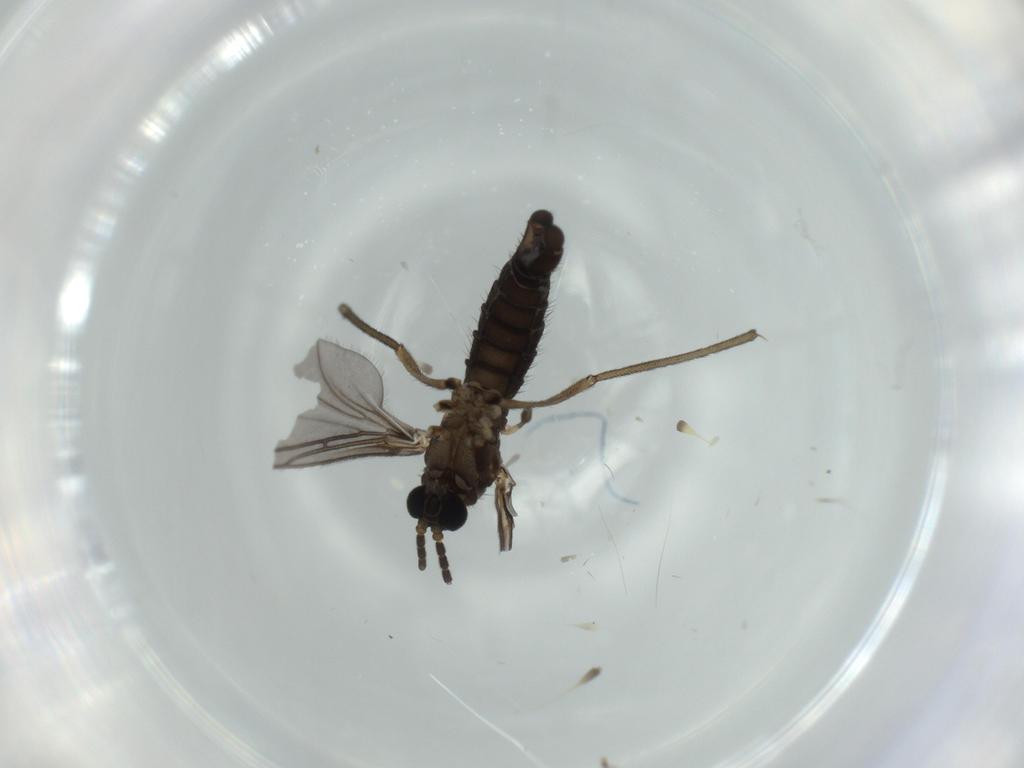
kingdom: Animalia
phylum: Arthropoda
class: Insecta
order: Diptera
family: Sciaridae
